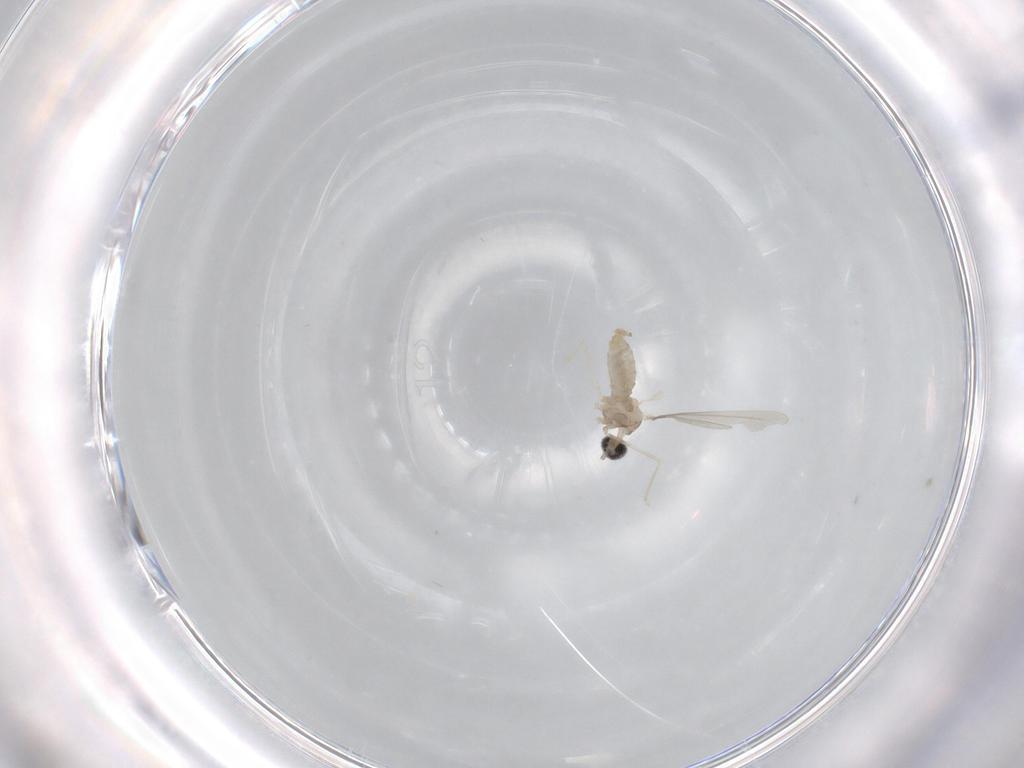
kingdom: Animalia
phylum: Arthropoda
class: Insecta
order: Diptera
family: Cecidomyiidae
